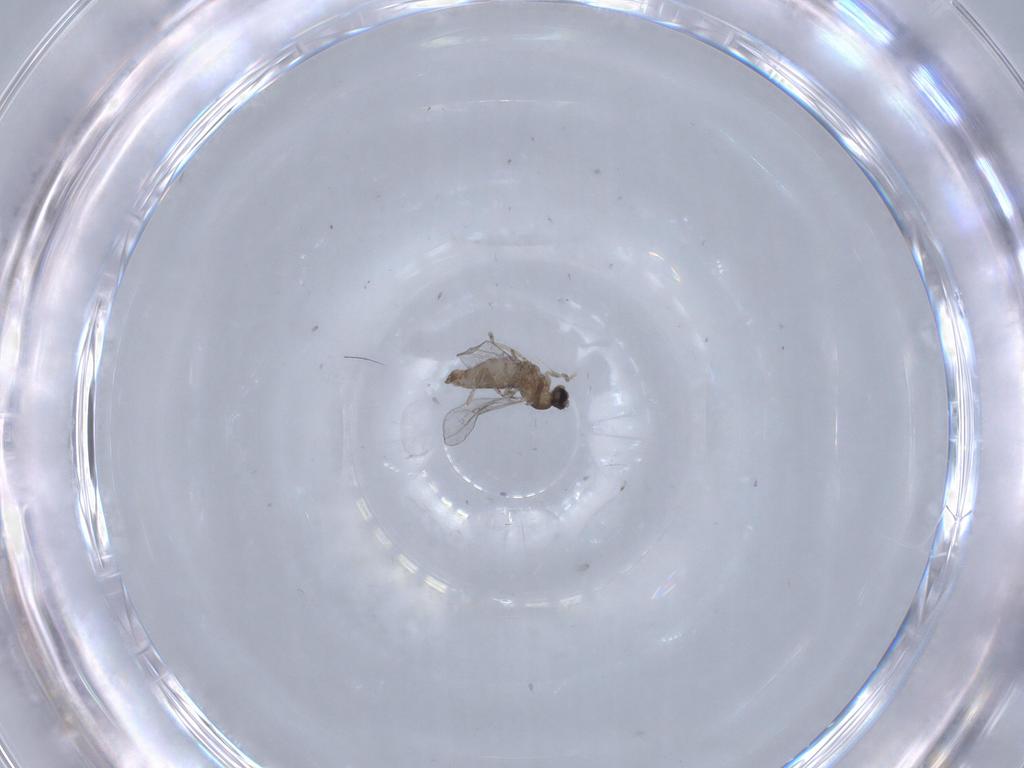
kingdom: Animalia
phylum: Arthropoda
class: Insecta
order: Diptera
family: Cecidomyiidae
